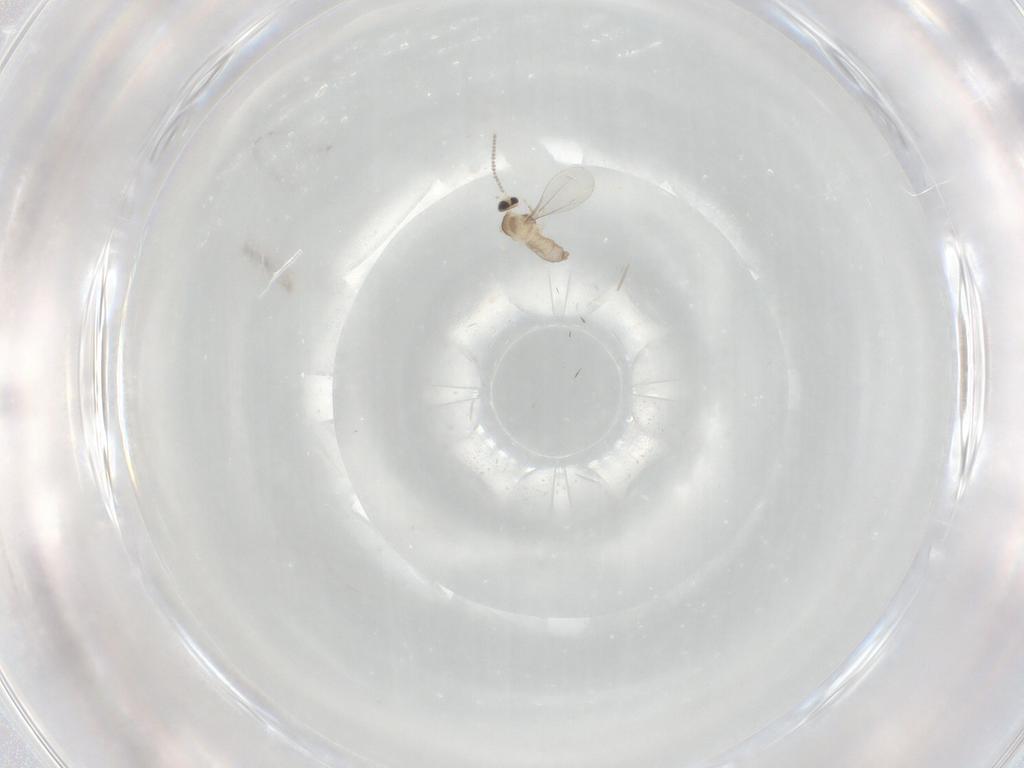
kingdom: Animalia
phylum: Arthropoda
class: Insecta
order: Diptera
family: Cecidomyiidae
